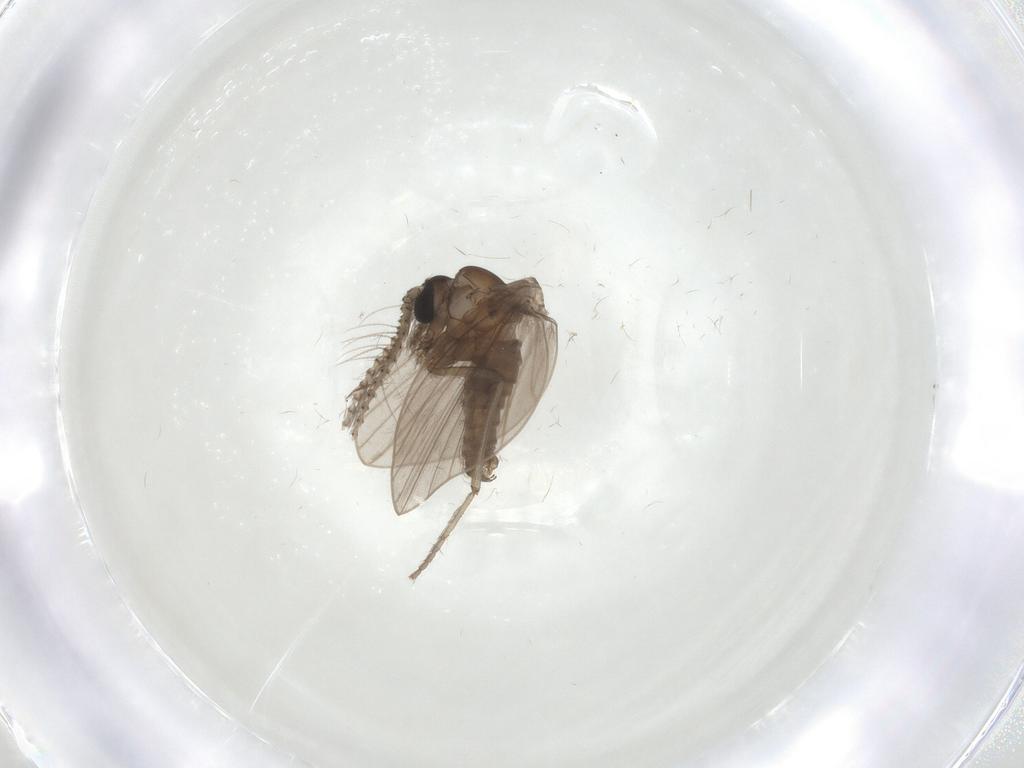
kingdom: Animalia
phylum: Arthropoda
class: Insecta
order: Diptera
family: Psychodidae
